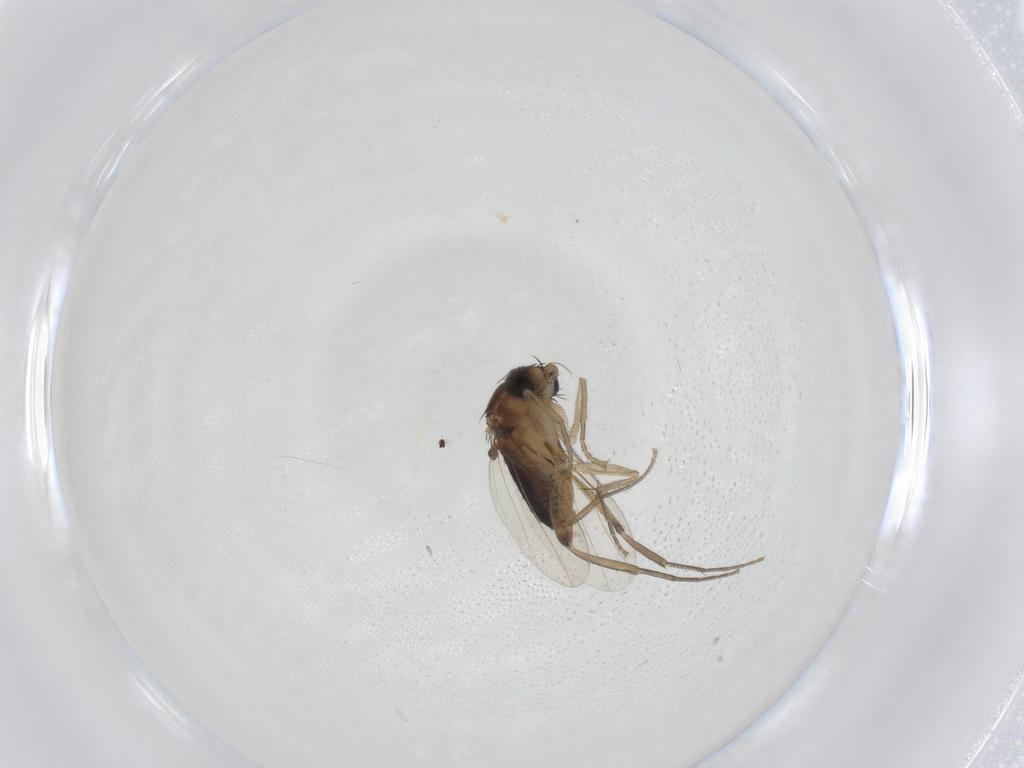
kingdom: Animalia
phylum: Arthropoda
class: Insecta
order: Diptera
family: Phoridae
